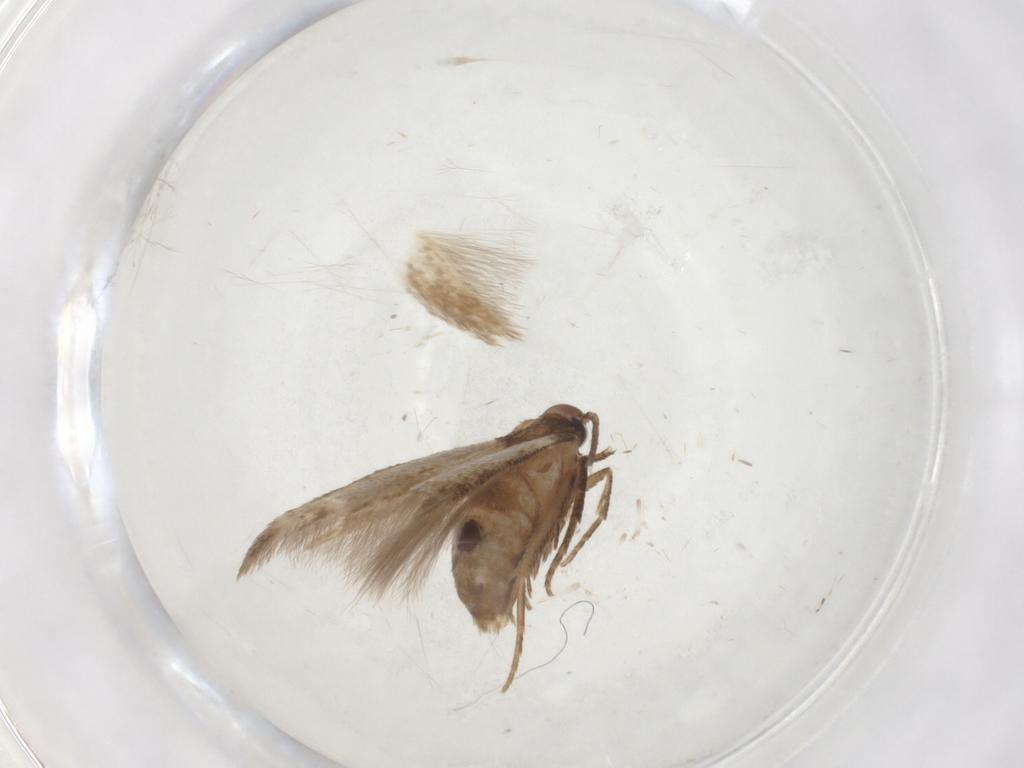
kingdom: Animalia
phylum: Arthropoda
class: Insecta
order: Lepidoptera
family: Cosmopterigidae
